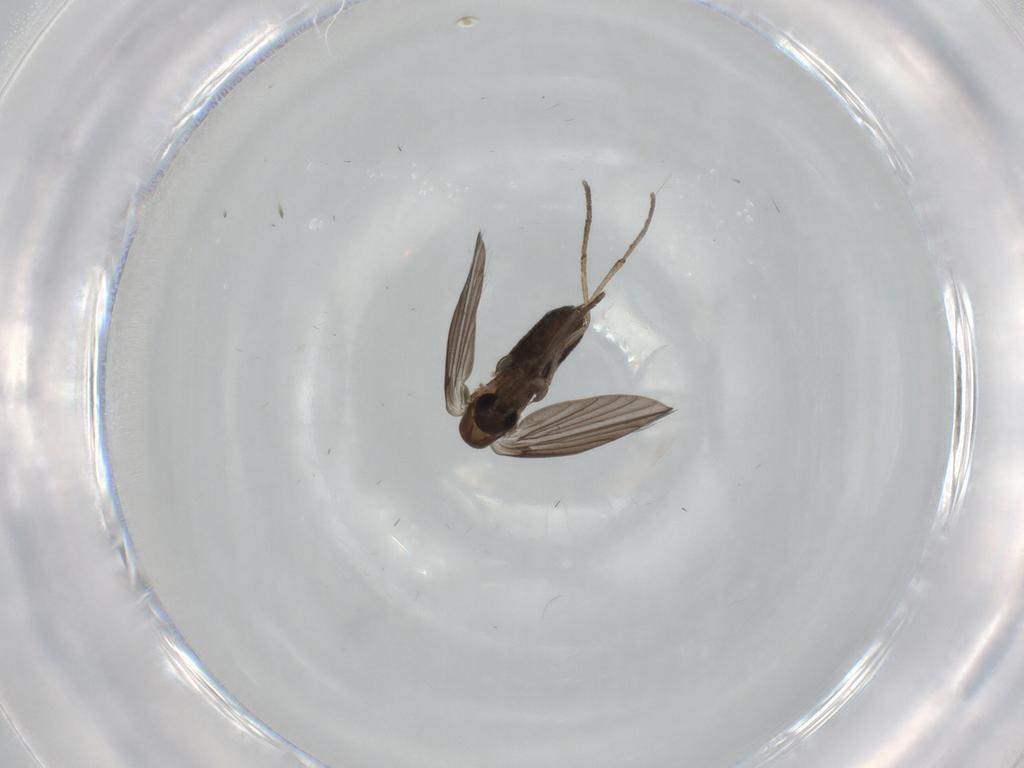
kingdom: Animalia
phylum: Arthropoda
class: Insecta
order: Diptera
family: Psychodidae
